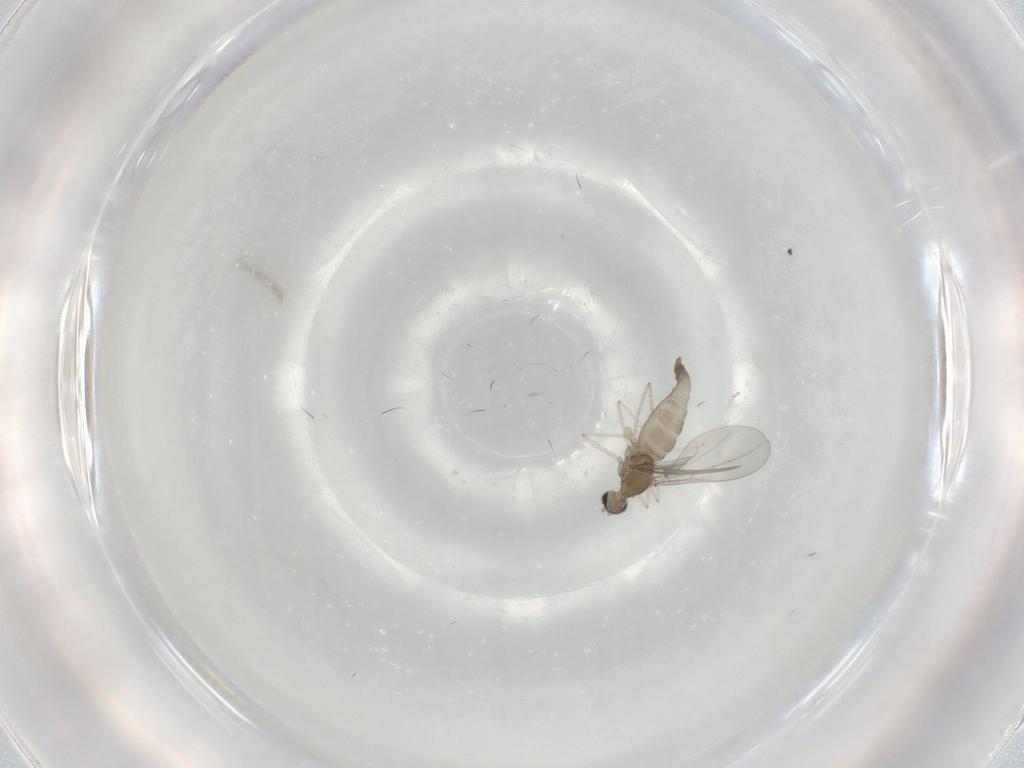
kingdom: Animalia
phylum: Arthropoda
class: Insecta
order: Diptera
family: Cecidomyiidae
